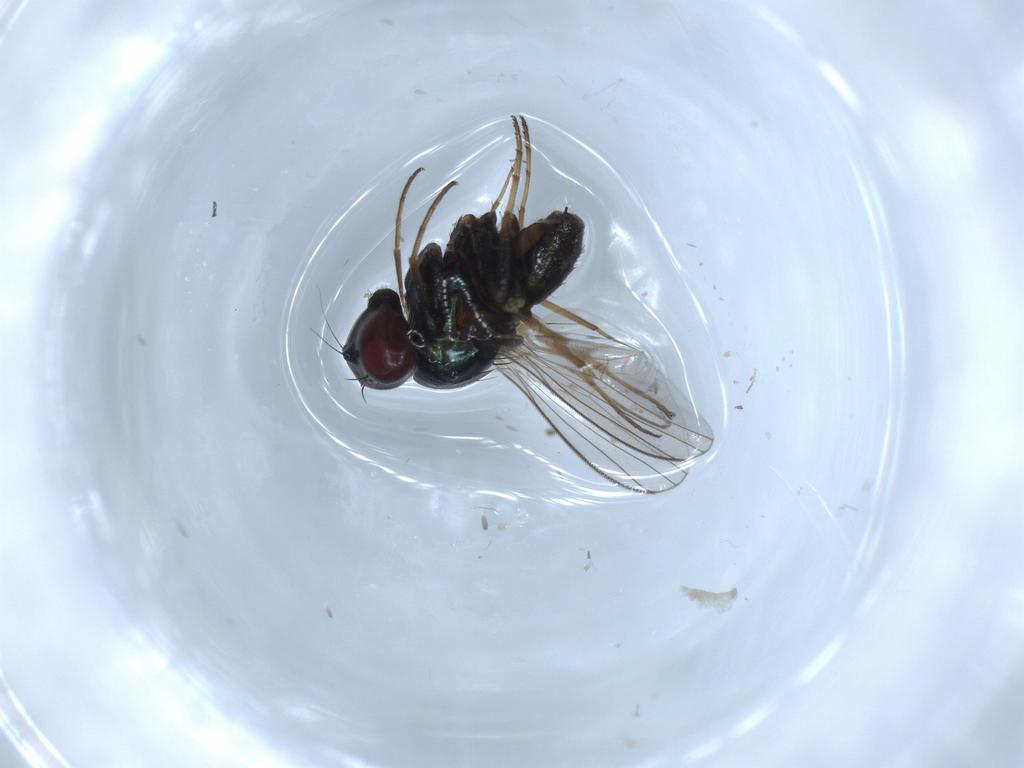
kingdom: Animalia
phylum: Arthropoda
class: Insecta
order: Diptera
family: Dolichopodidae
